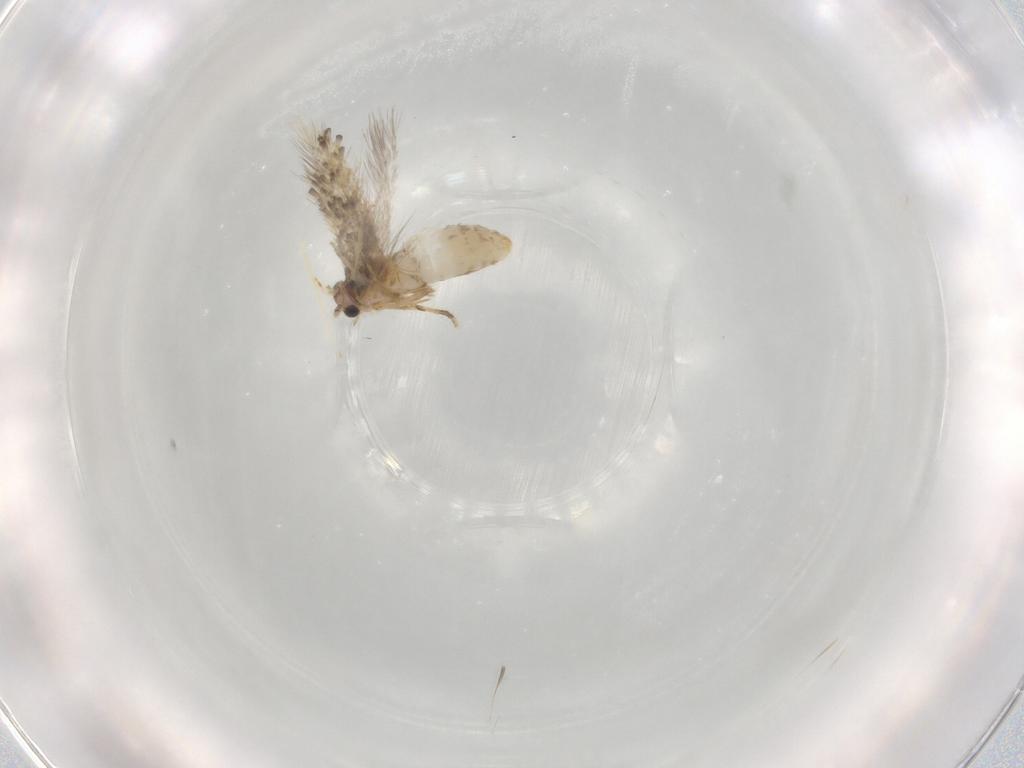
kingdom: Animalia
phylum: Arthropoda
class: Insecta
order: Lepidoptera
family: Nepticulidae
